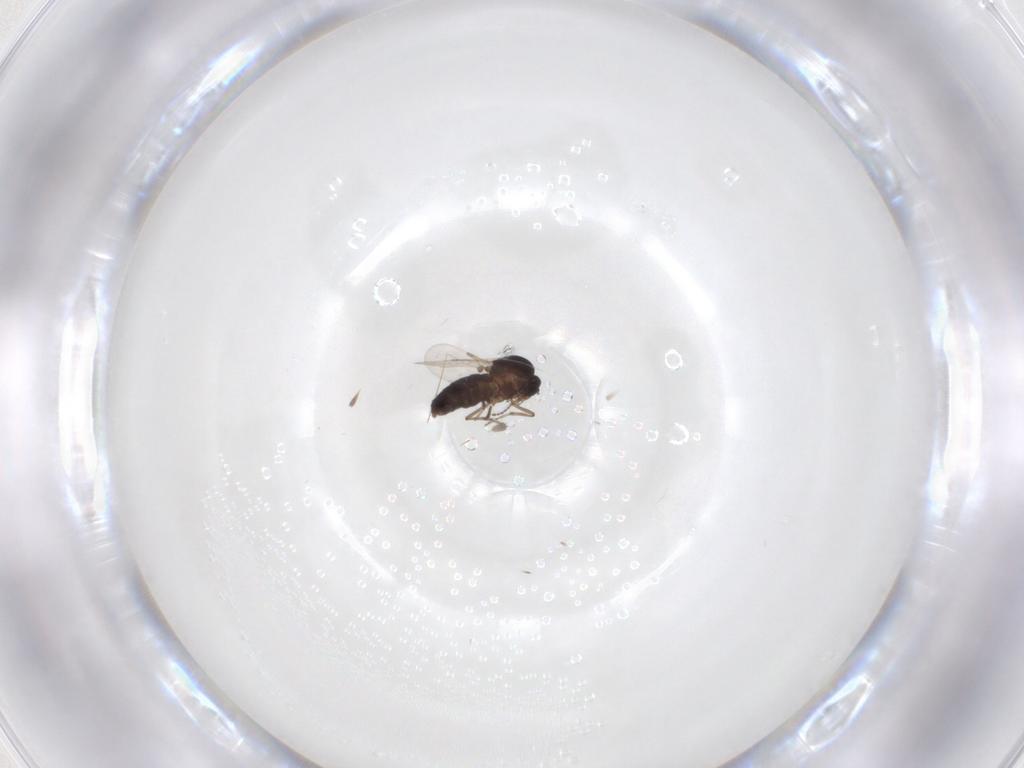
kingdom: Animalia
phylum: Arthropoda
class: Insecta
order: Diptera
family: Ceratopogonidae
